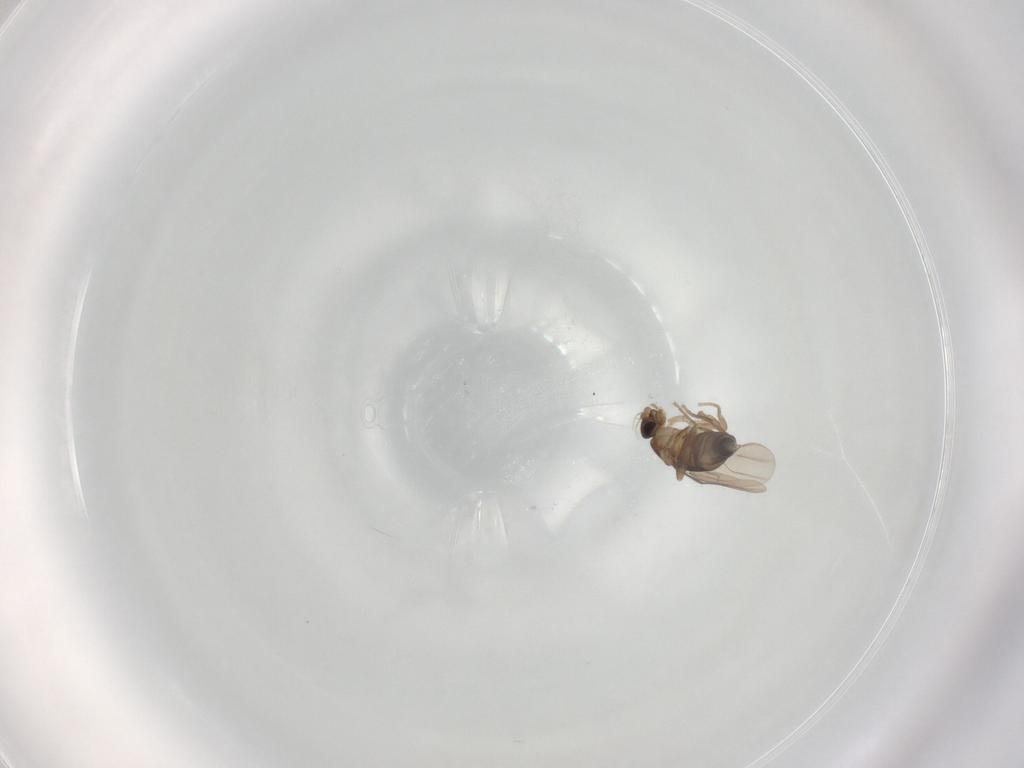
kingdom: Animalia
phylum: Arthropoda
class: Insecta
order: Diptera
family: Phoridae
